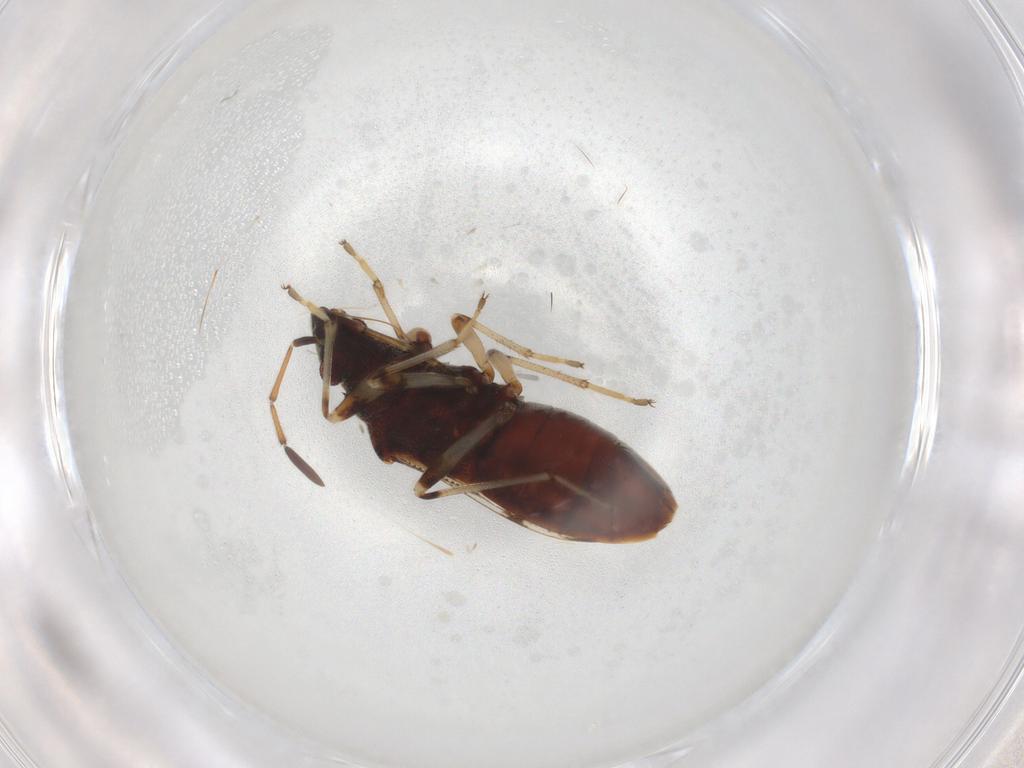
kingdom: Animalia
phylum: Arthropoda
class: Insecta
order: Hemiptera
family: Rhyparochromidae
